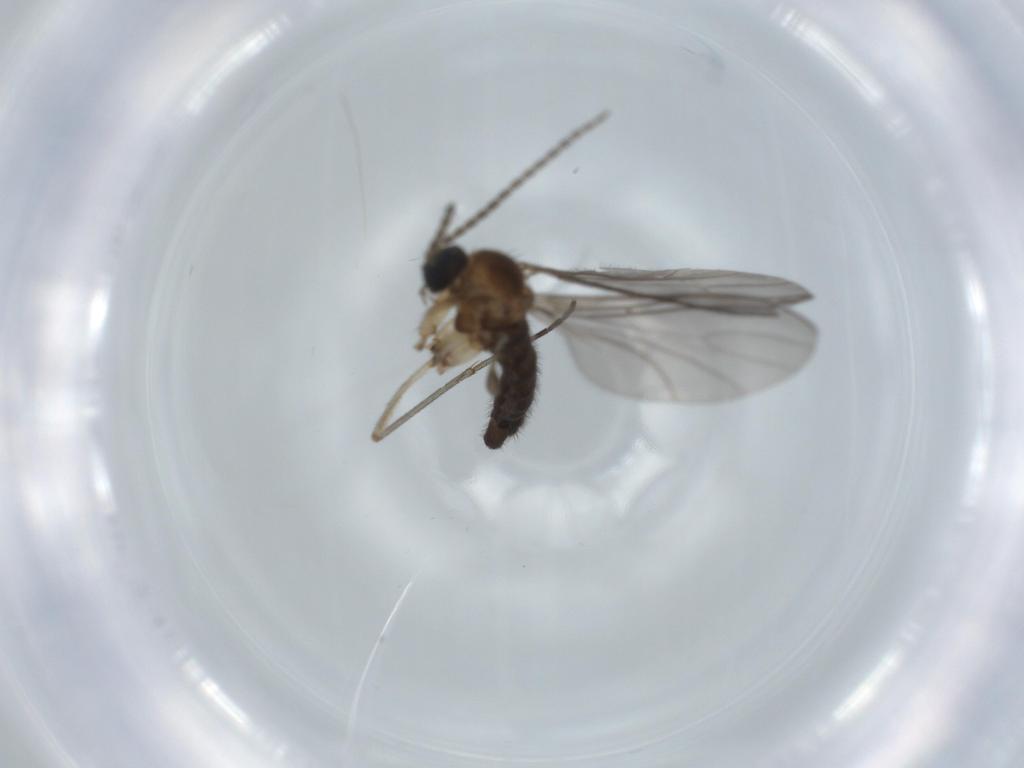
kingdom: Animalia
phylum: Arthropoda
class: Insecta
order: Diptera
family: Sciaridae
